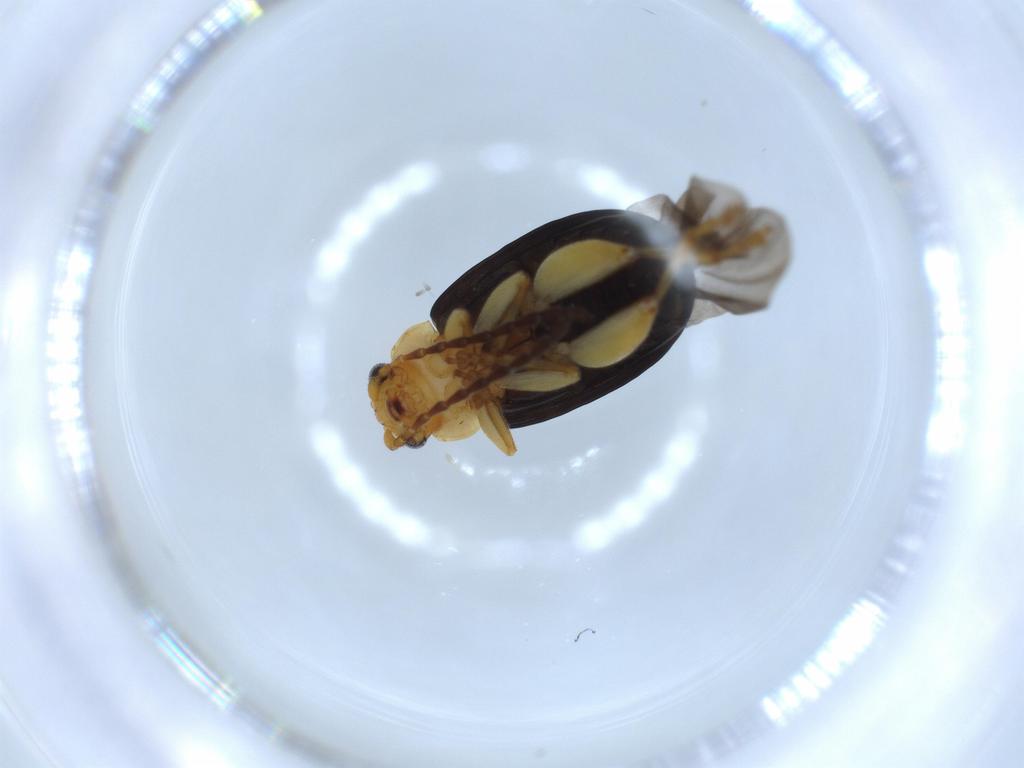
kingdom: Animalia
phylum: Arthropoda
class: Insecta
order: Coleoptera
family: Chrysomelidae
